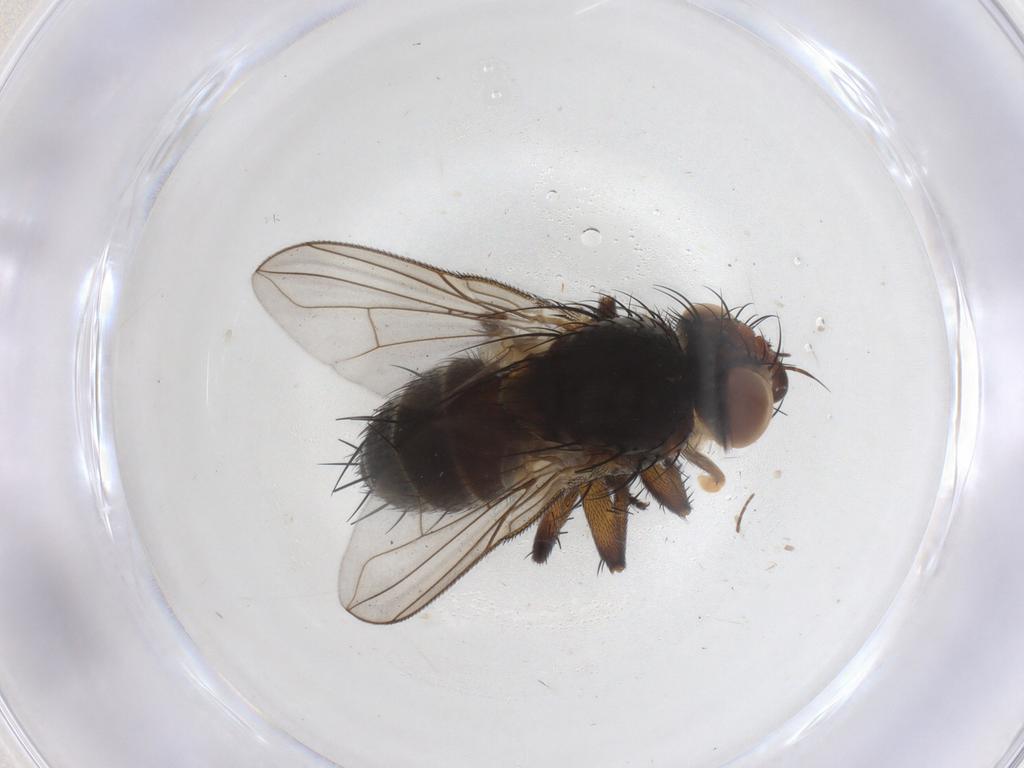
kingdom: Animalia
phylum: Arthropoda
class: Insecta
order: Diptera
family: Tachinidae
